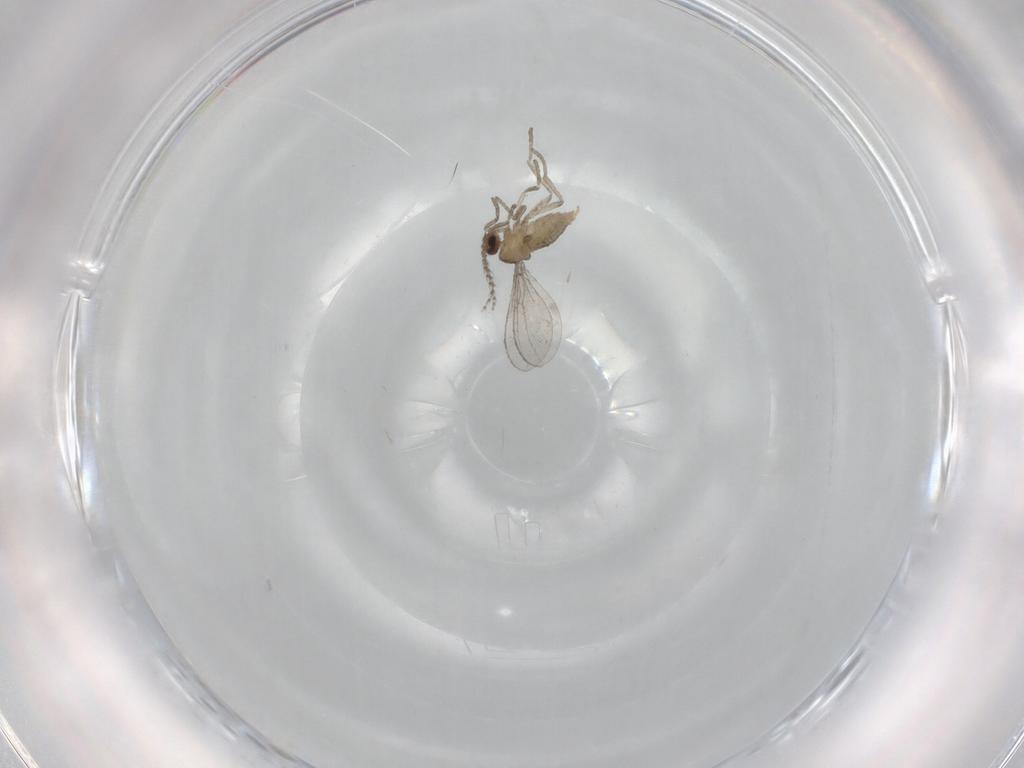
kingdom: Animalia
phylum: Arthropoda
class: Insecta
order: Diptera
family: Cecidomyiidae
